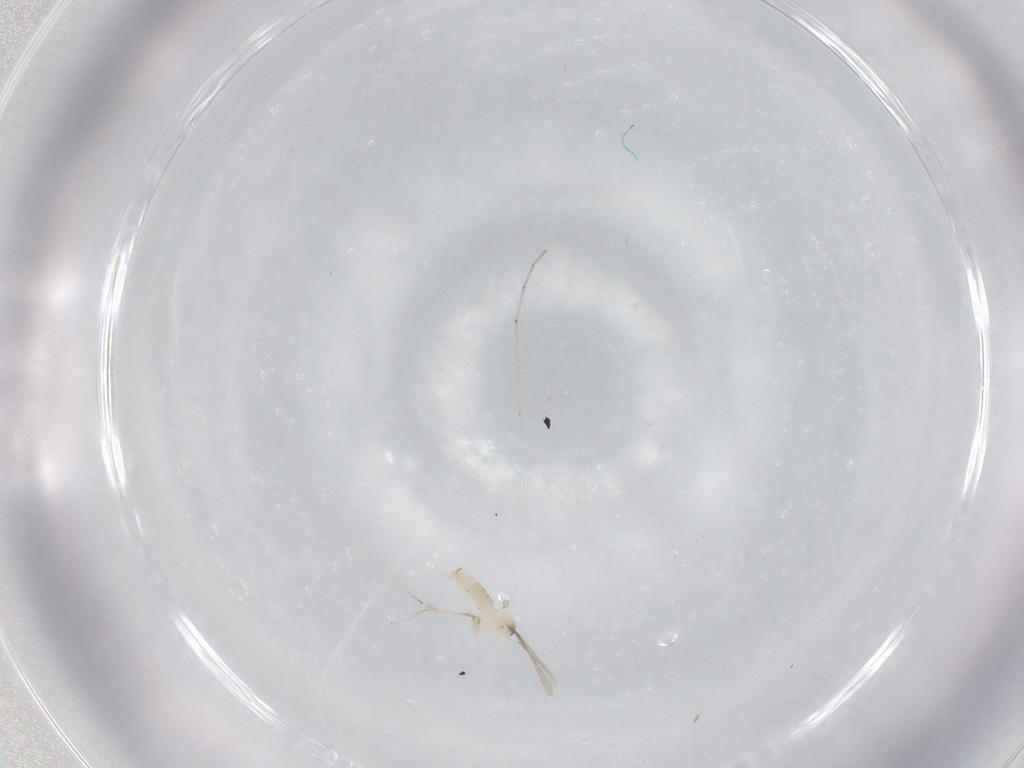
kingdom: Animalia
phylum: Arthropoda
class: Insecta
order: Diptera
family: Cecidomyiidae
